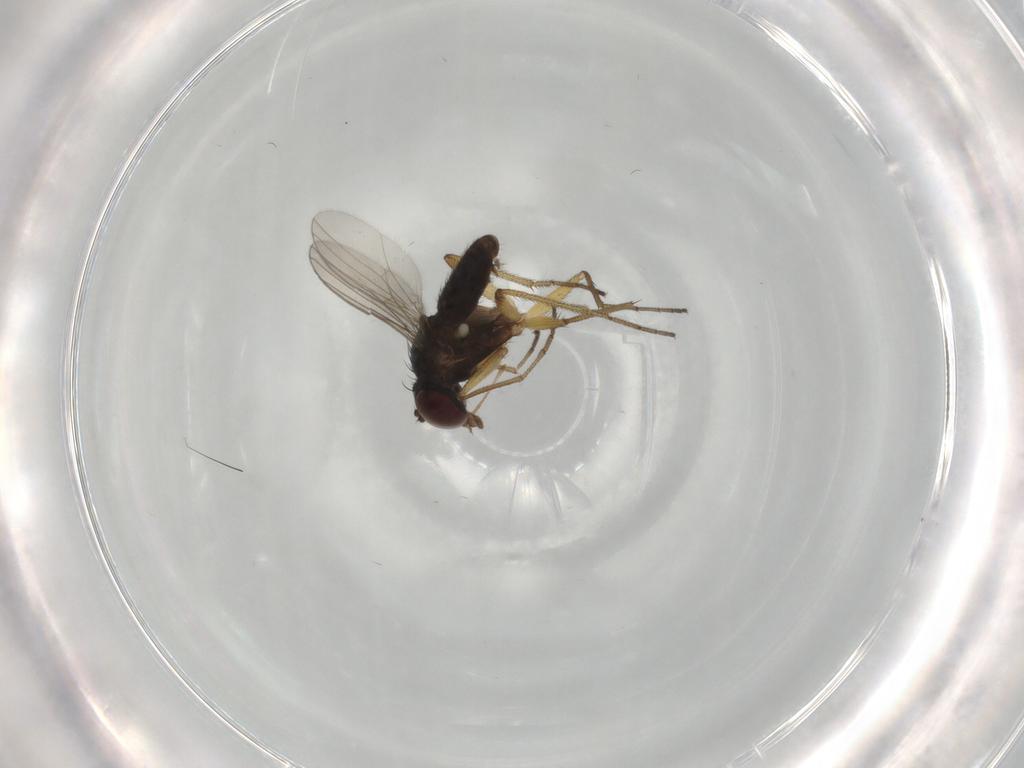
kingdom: Animalia
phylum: Arthropoda
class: Insecta
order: Diptera
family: Dolichopodidae
